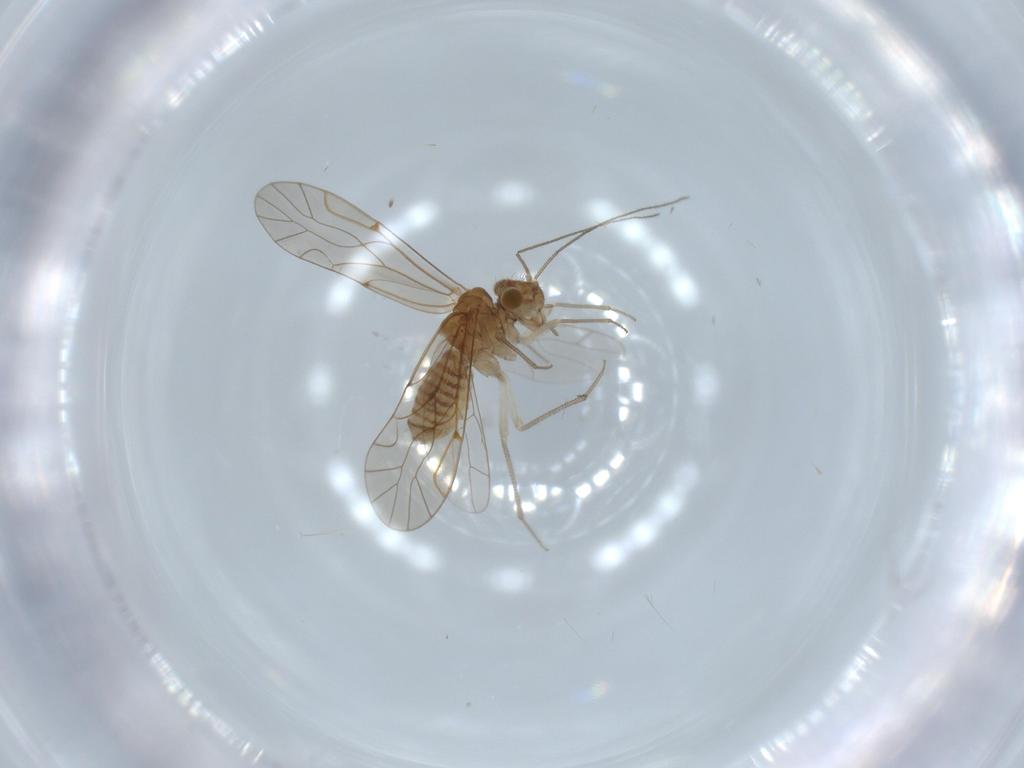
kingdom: Animalia
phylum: Arthropoda
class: Insecta
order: Psocodea
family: Lachesillidae
